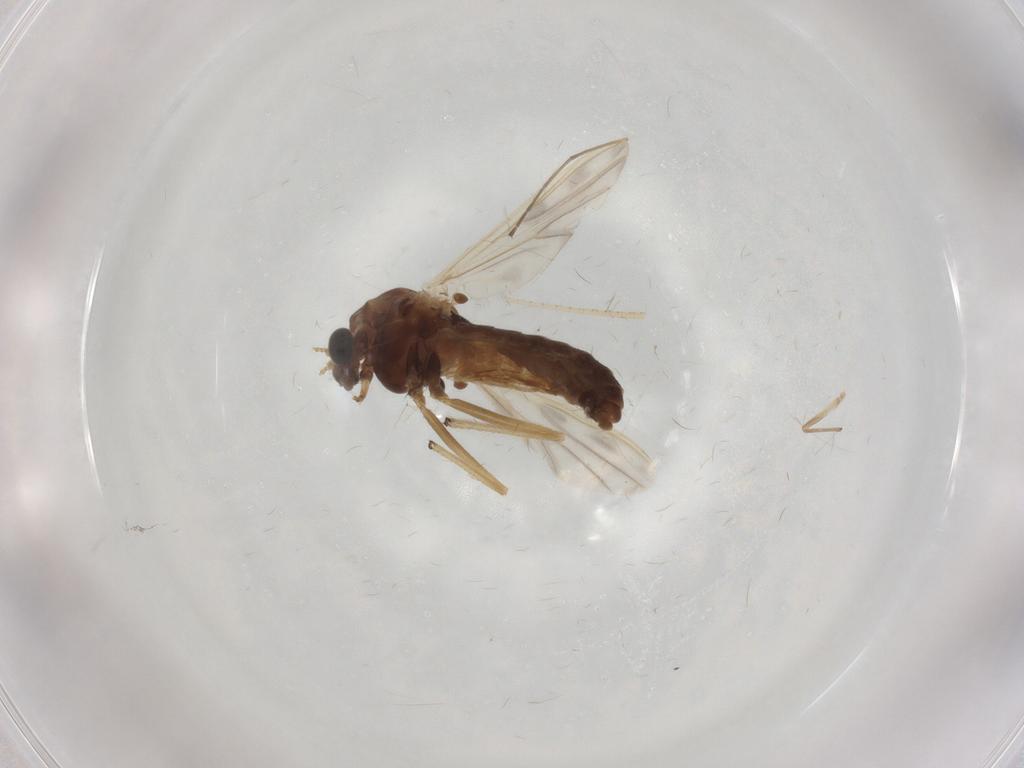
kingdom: Animalia
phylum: Arthropoda
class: Insecta
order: Diptera
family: Chironomidae
